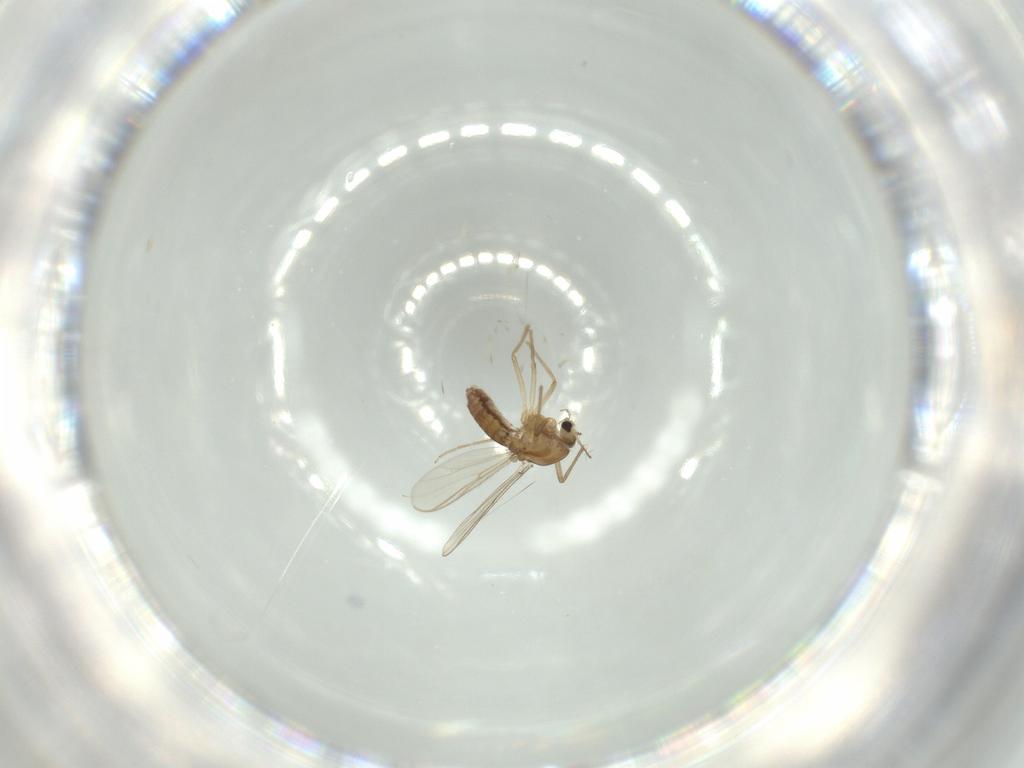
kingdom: Animalia
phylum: Arthropoda
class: Insecta
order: Diptera
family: Chironomidae
